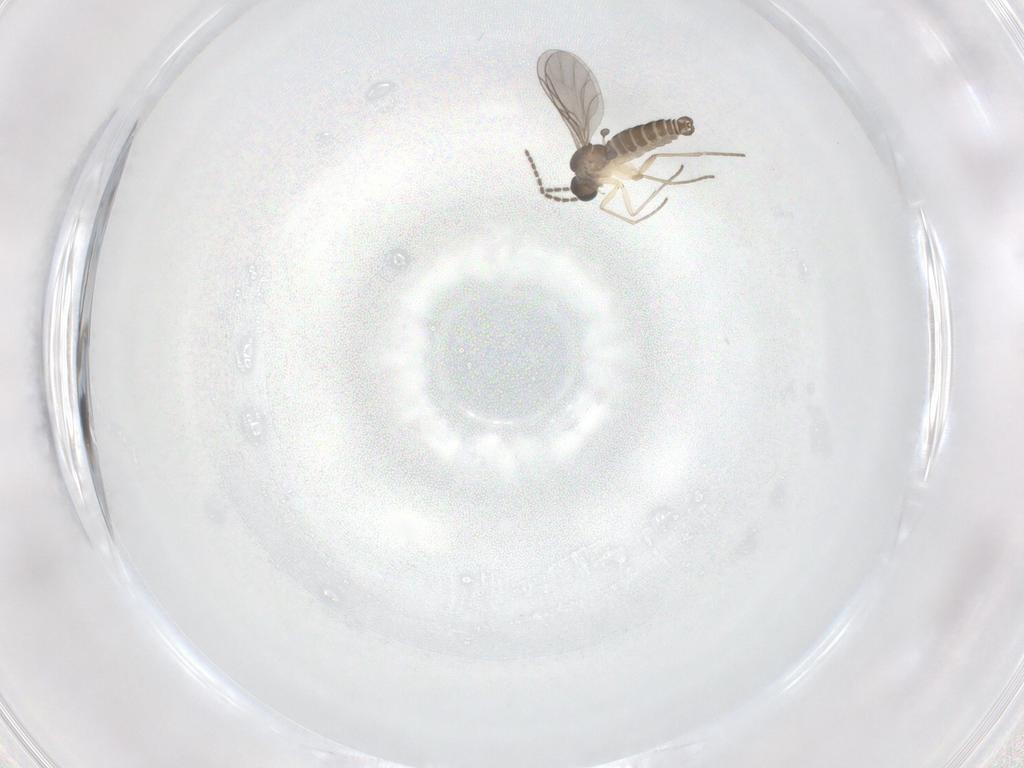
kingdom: Animalia
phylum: Arthropoda
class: Insecta
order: Diptera
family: Sciaridae
